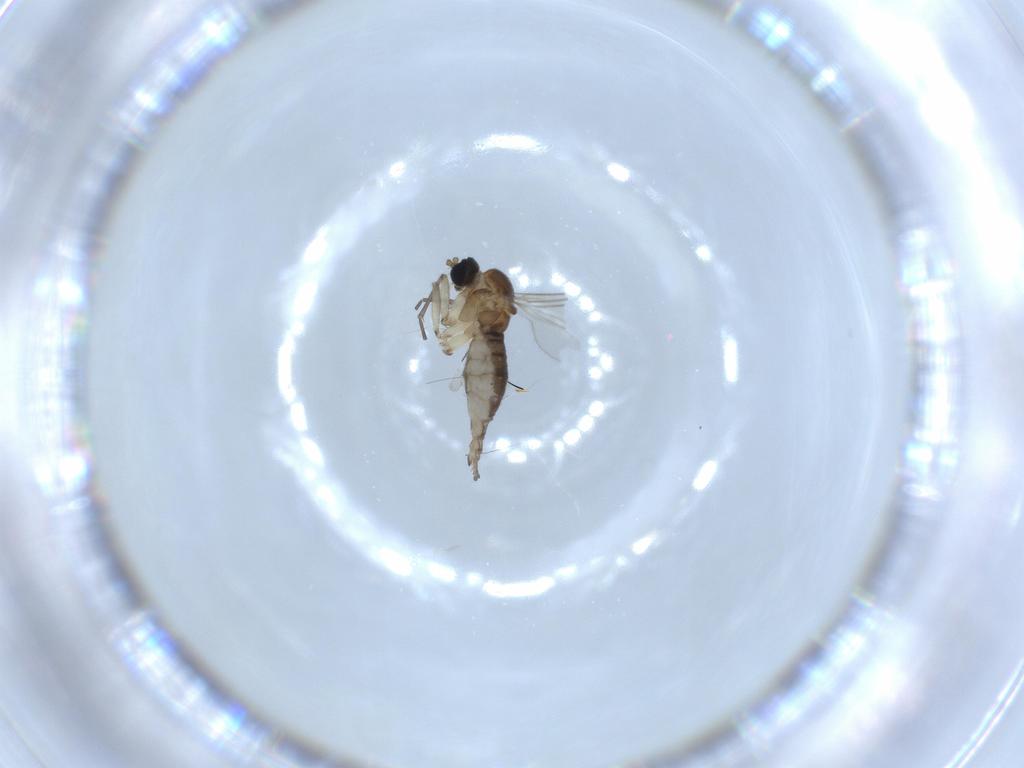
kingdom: Animalia
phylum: Arthropoda
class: Insecta
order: Diptera
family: Sciaridae
